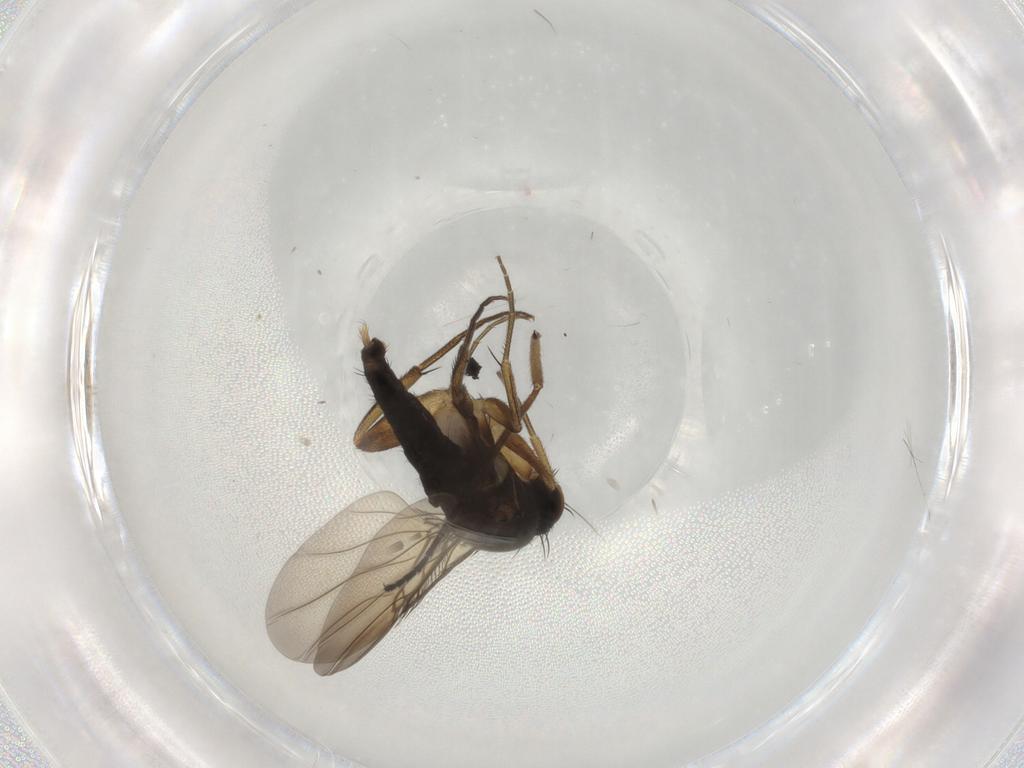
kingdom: Animalia
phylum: Arthropoda
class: Insecta
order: Diptera
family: Phoridae
